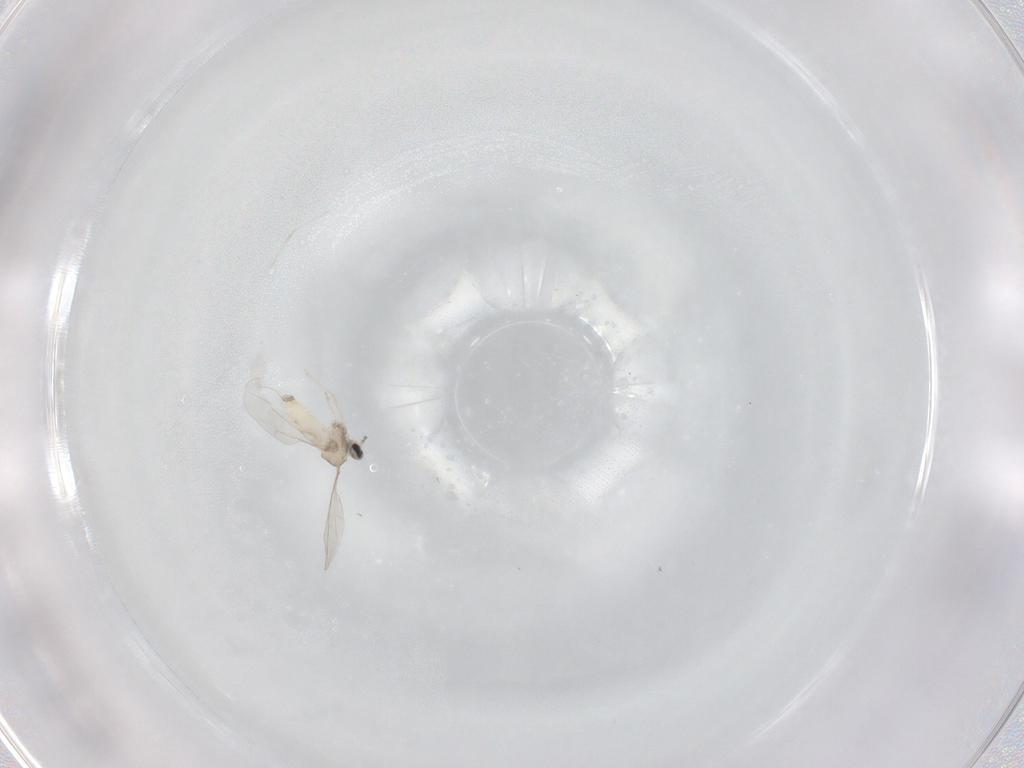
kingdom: Animalia
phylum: Arthropoda
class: Insecta
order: Diptera
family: Cecidomyiidae
